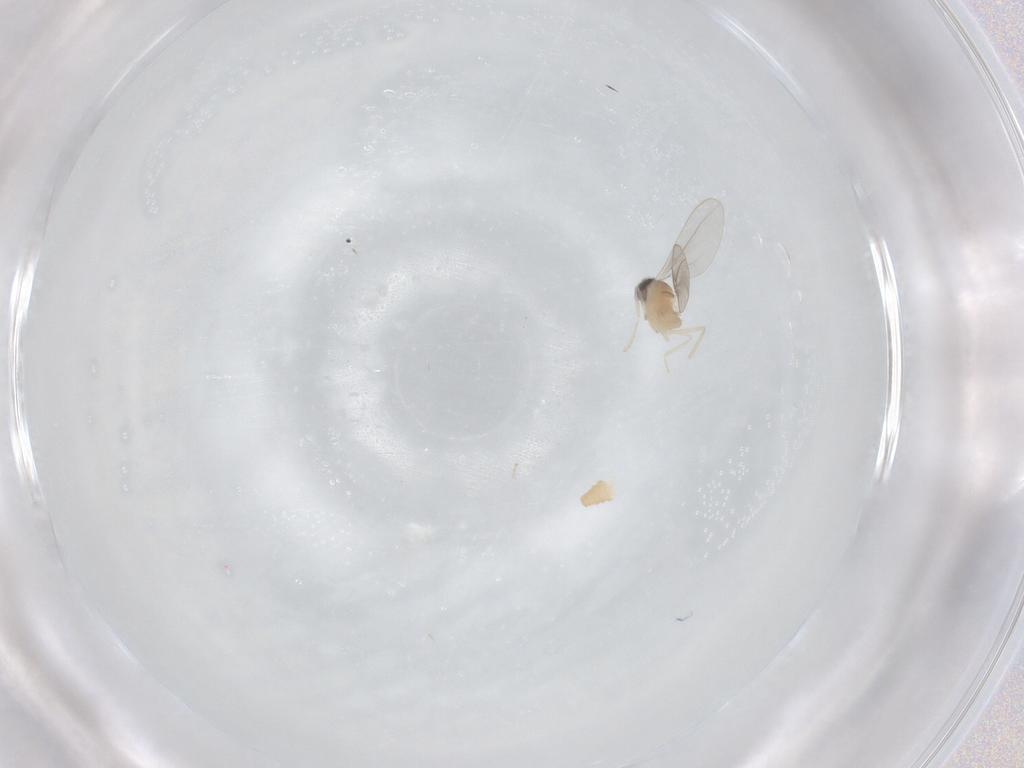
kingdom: Animalia
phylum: Arthropoda
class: Insecta
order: Diptera
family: Cecidomyiidae
